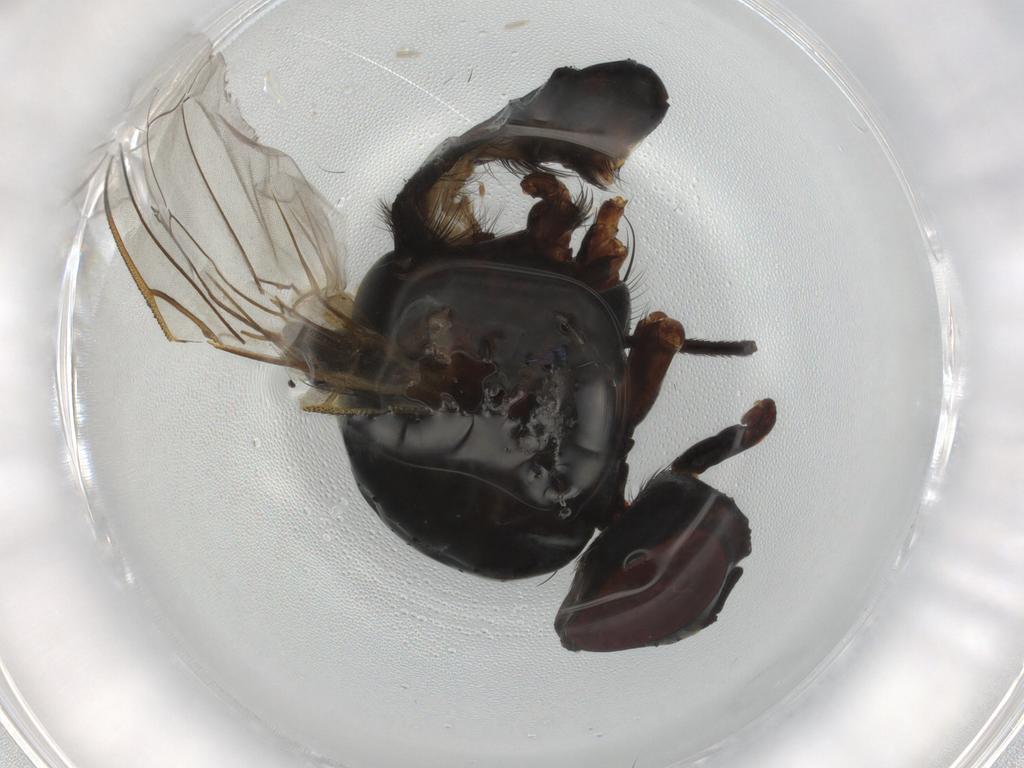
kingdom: Animalia
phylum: Arthropoda
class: Insecta
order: Diptera
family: Anthomyiidae
